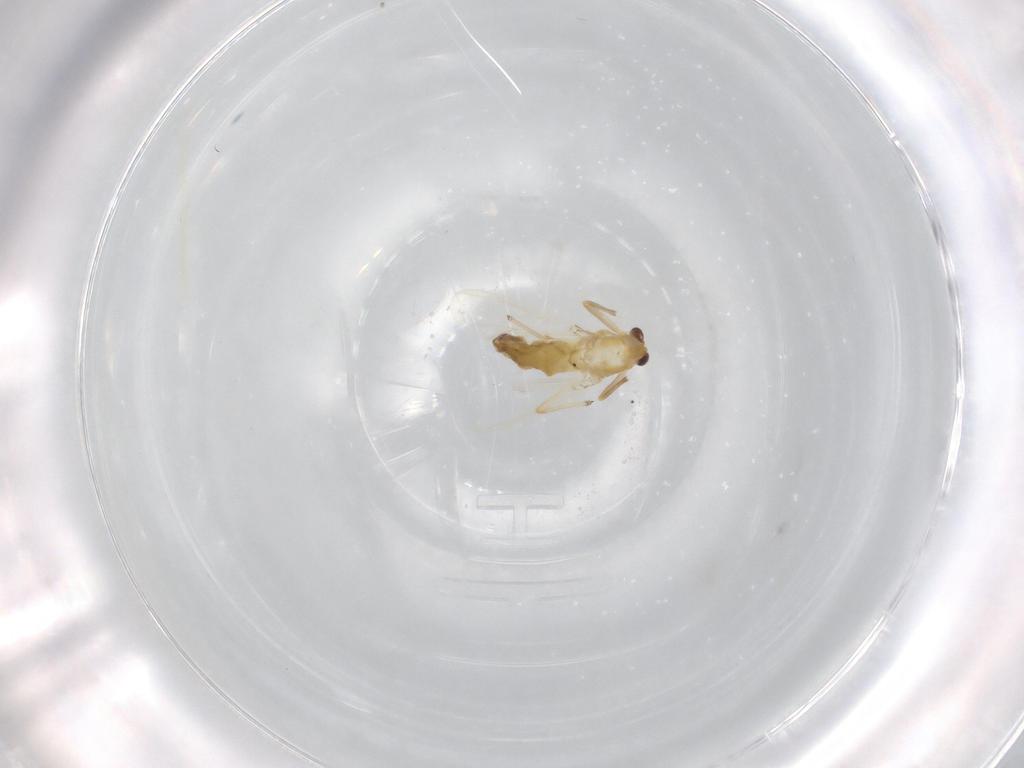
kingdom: Animalia
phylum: Arthropoda
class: Insecta
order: Diptera
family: Chironomidae
